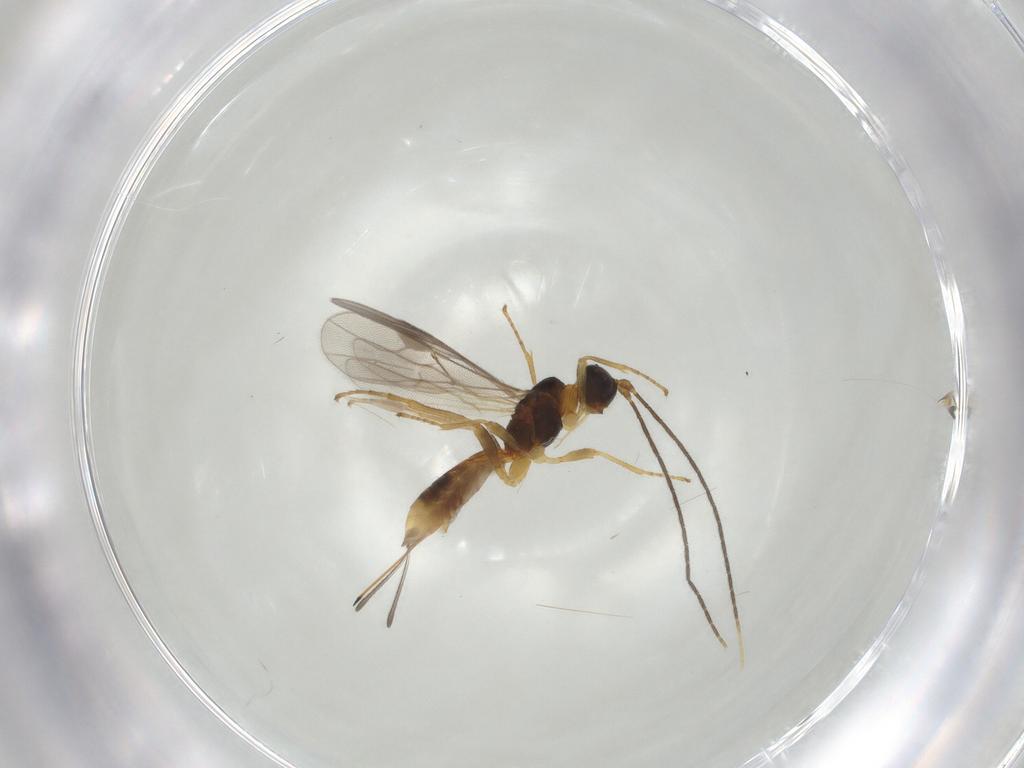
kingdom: Animalia
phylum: Arthropoda
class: Insecta
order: Hymenoptera
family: Braconidae
